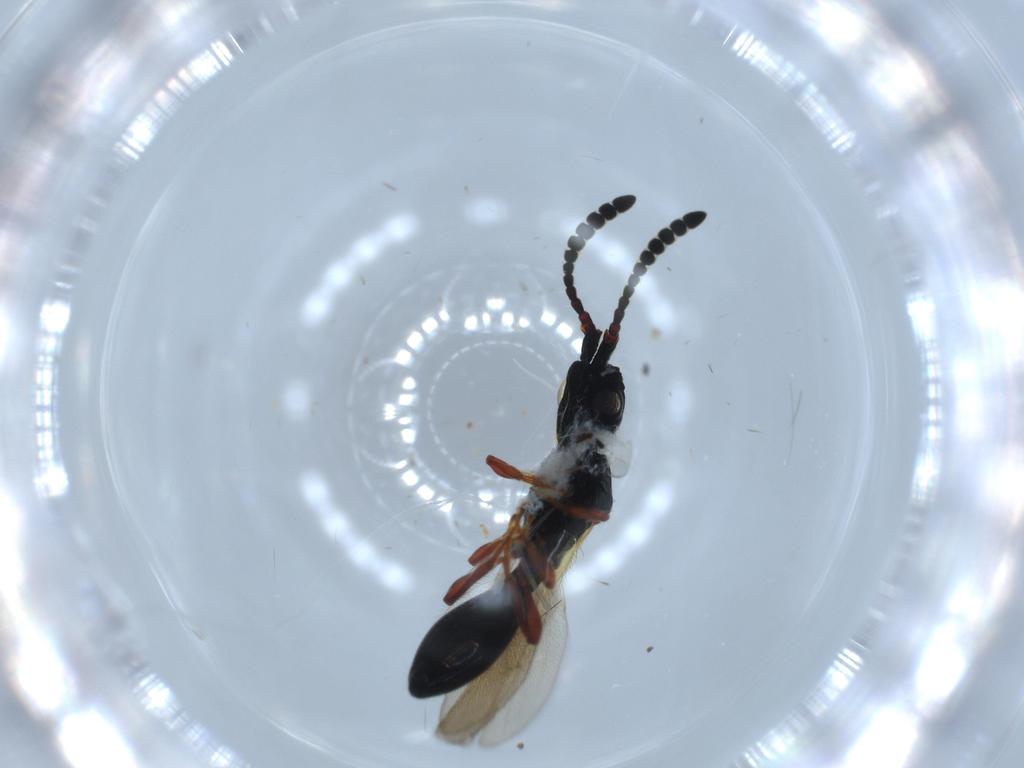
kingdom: Animalia
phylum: Arthropoda
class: Insecta
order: Hymenoptera
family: Diapriidae
